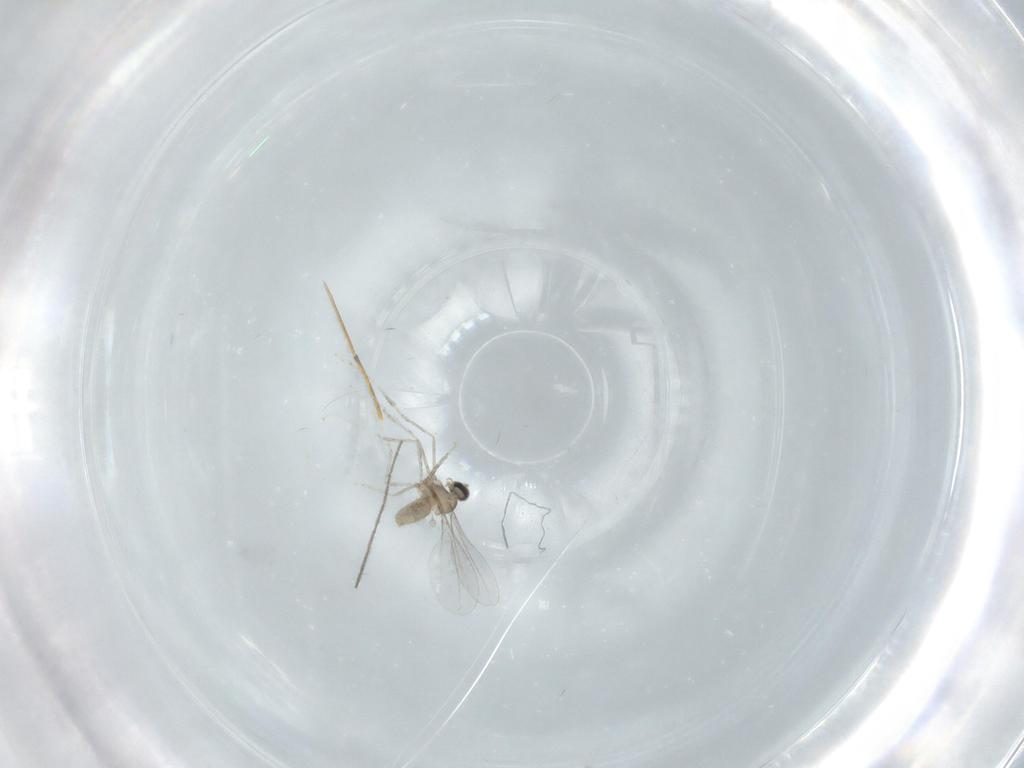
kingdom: Animalia
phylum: Arthropoda
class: Insecta
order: Diptera
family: Cecidomyiidae
